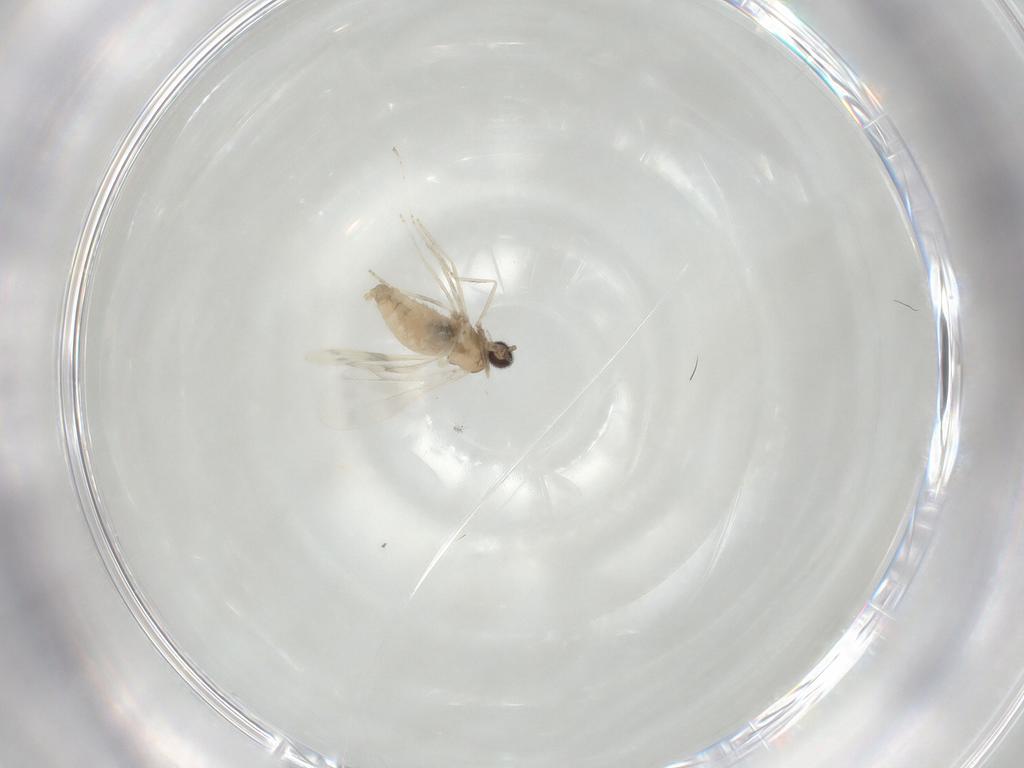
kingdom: Animalia
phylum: Arthropoda
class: Insecta
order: Diptera
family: Cecidomyiidae
